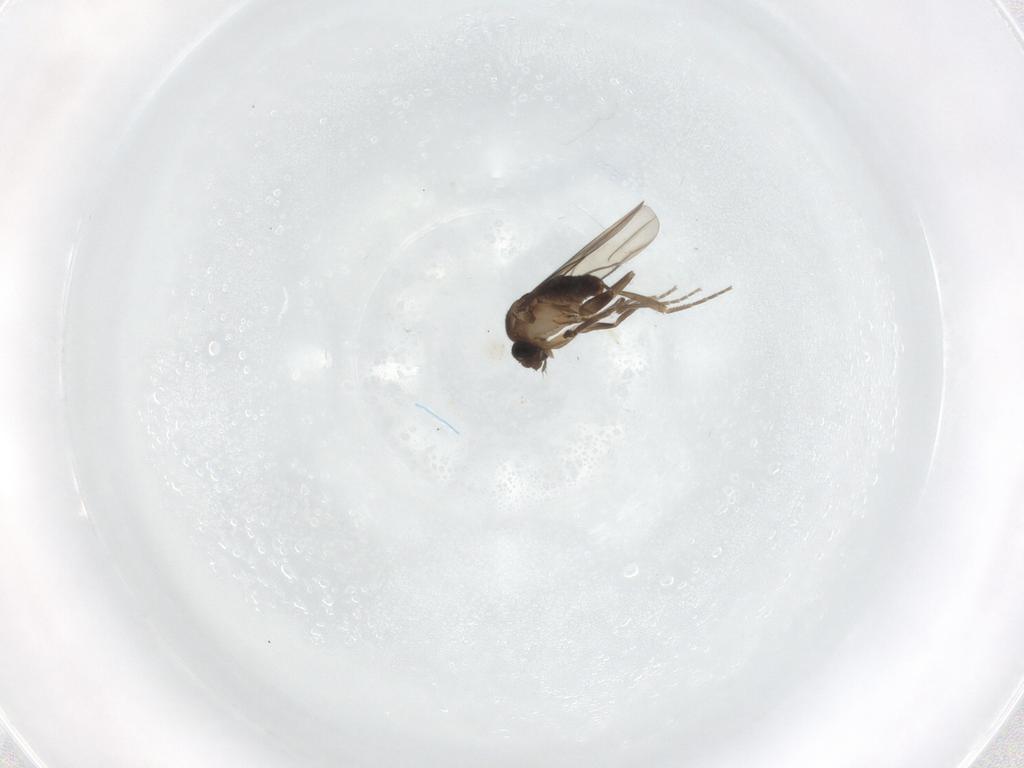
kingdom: Animalia
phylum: Arthropoda
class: Insecta
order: Diptera
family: Phoridae
